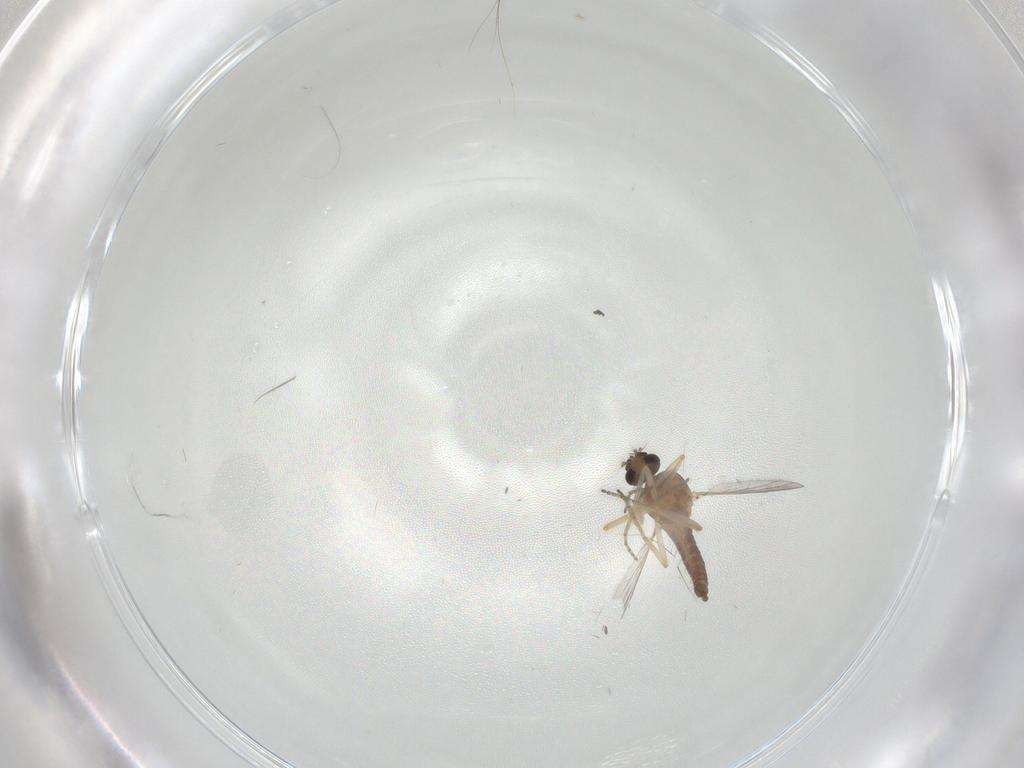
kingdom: Animalia
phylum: Arthropoda
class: Insecta
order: Diptera
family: Ceratopogonidae
